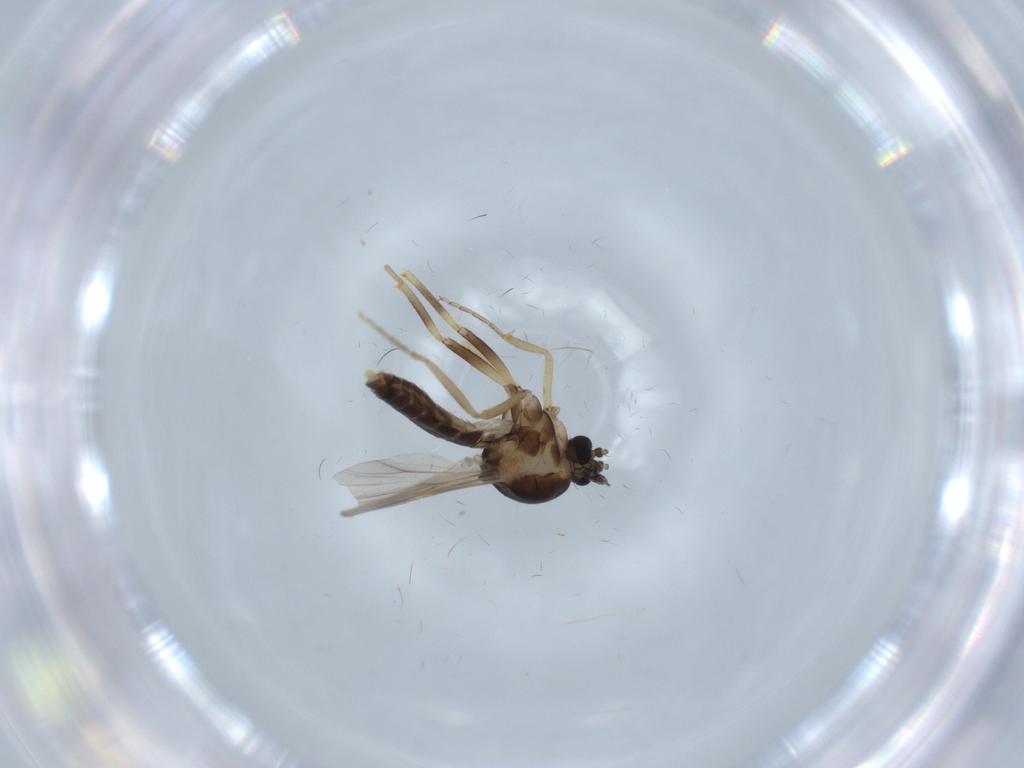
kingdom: Animalia
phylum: Arthropoda
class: Insecta
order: Diptera
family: Ceratopogonidae
